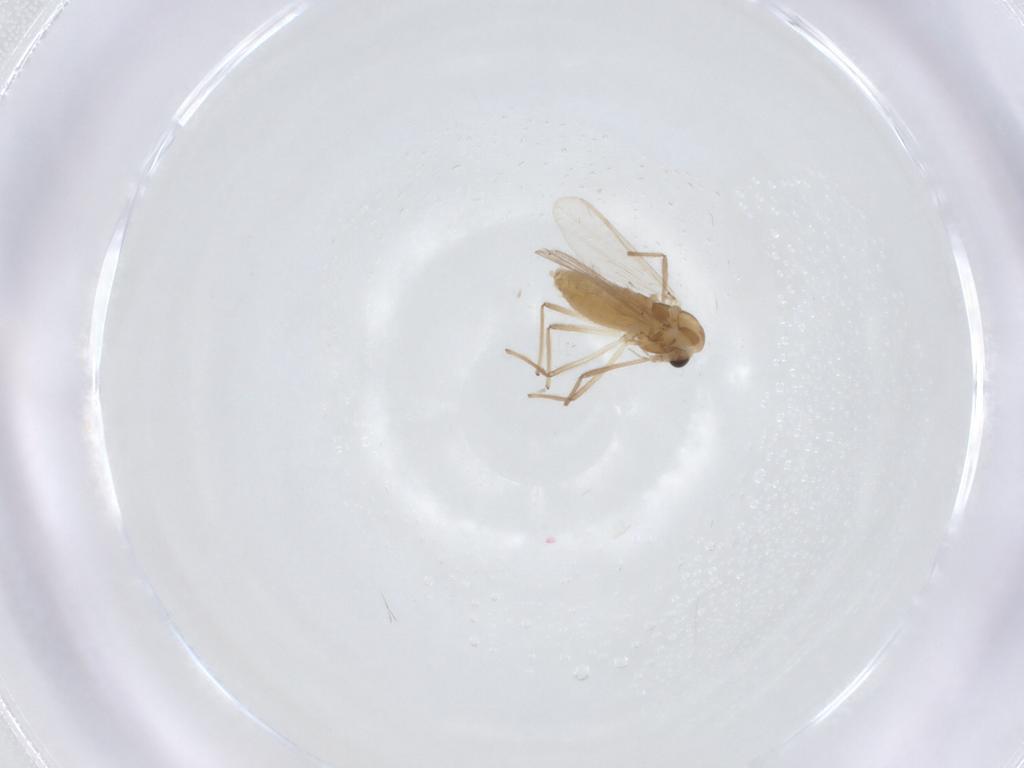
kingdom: Animalia
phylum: Arthropoda
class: Insecta
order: Diptera
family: Chironomidae
